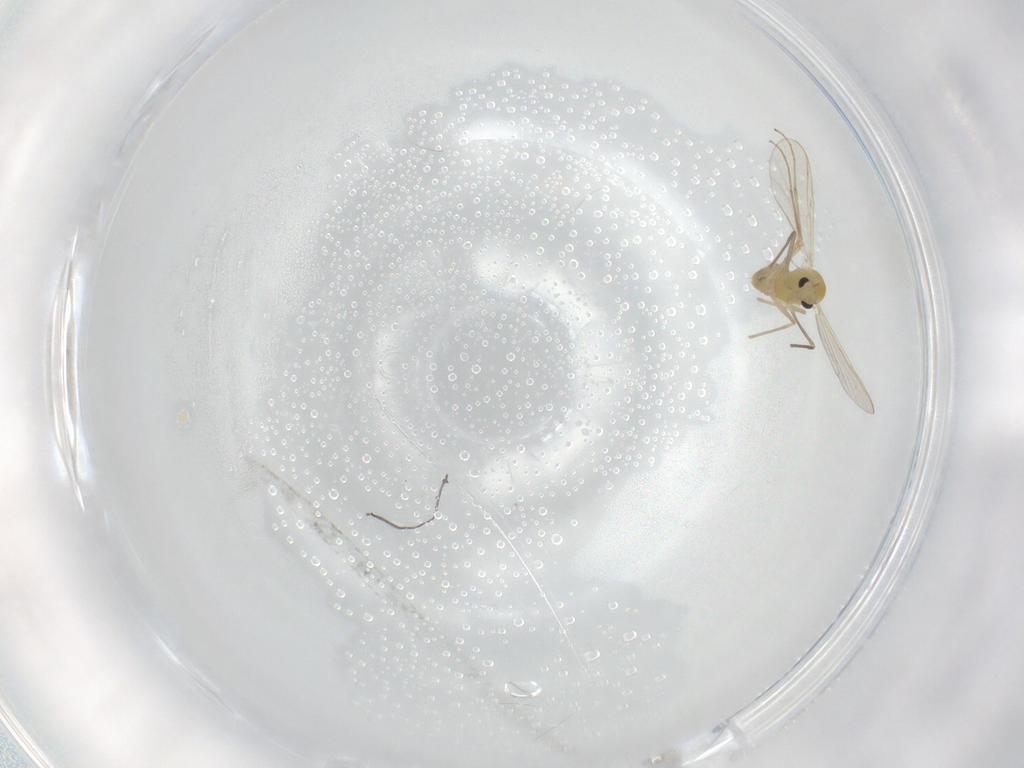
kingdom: Animalia
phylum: Arthropoda
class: Insecta
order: Diptera
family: Chironomidae
